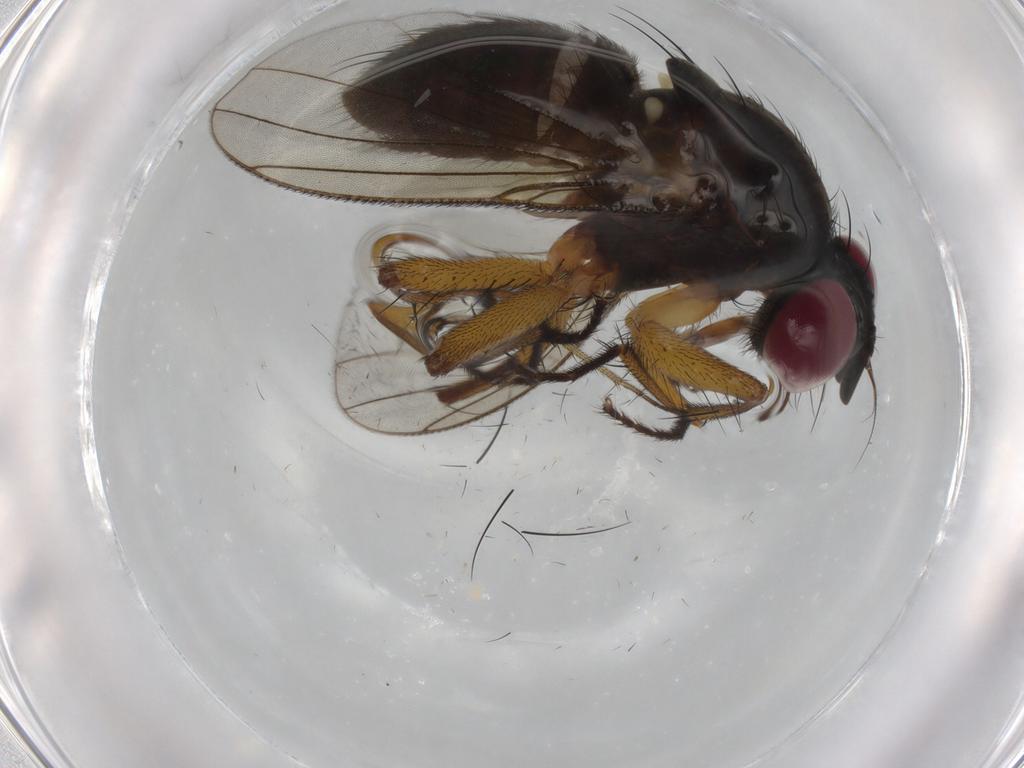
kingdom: Animalia
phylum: Arthropoda
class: Insecta
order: Diptera
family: Muscidae
